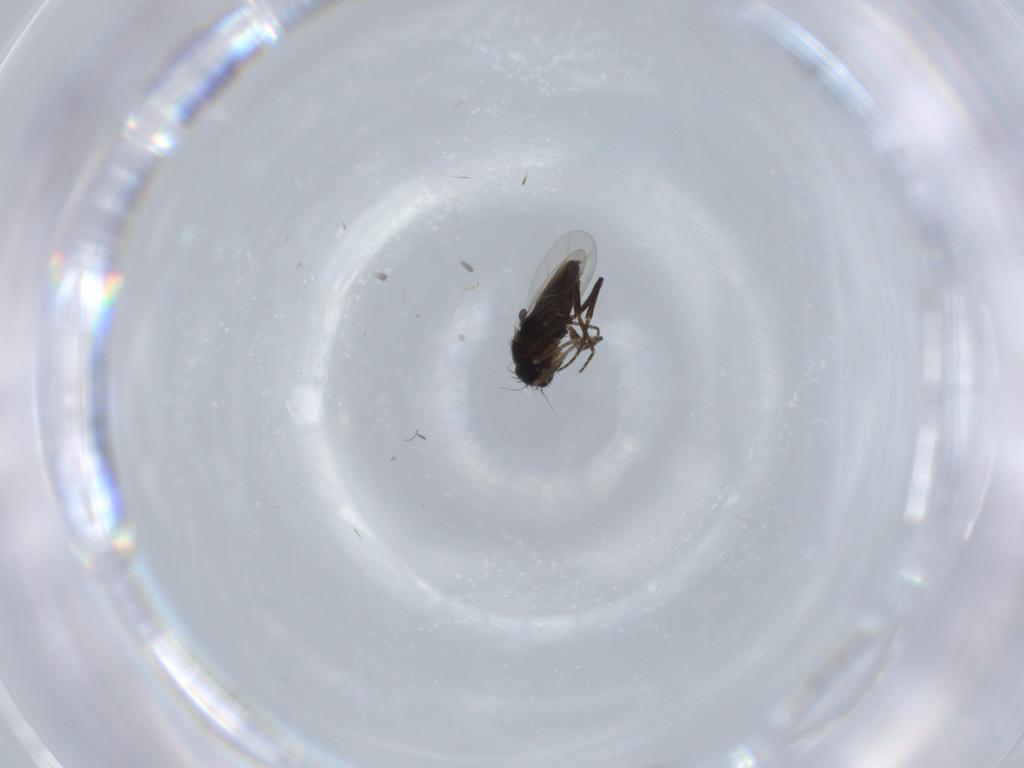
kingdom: Animalia
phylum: Arthropoda
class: Insecta
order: Diptera
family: Phoridae
